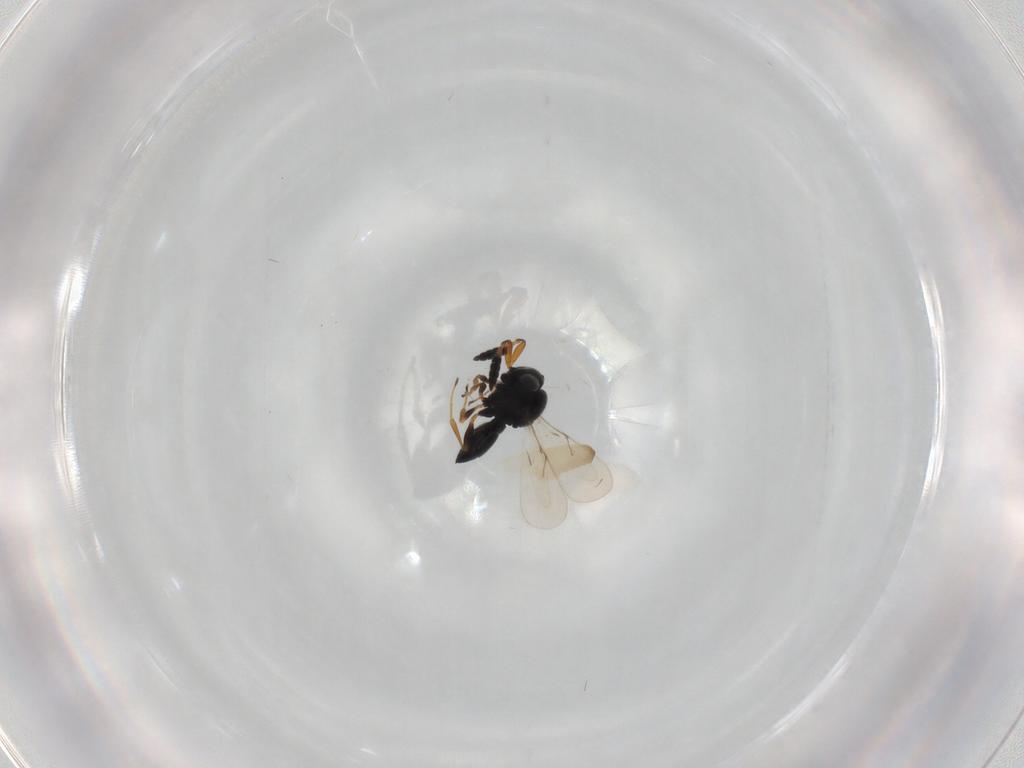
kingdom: Animalia
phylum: Arthropoda
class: Insecta
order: Hymenoptera
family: Scelionidae
